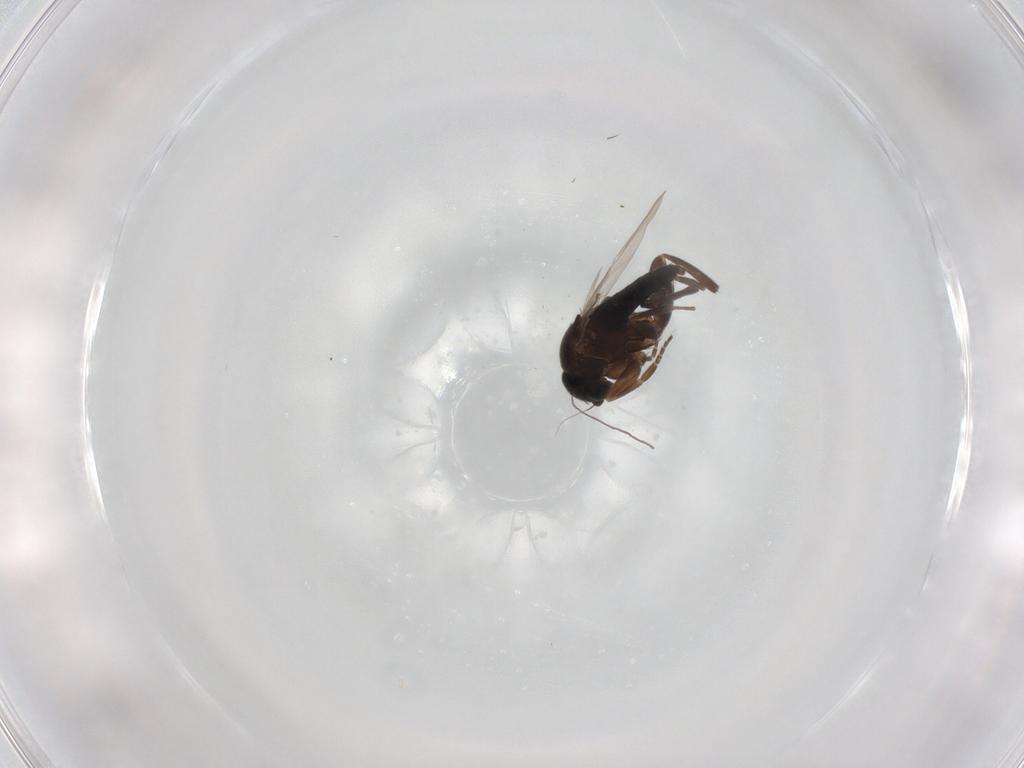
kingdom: Animalia
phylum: Arthropoda
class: Insecta
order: Diptera
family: Phoridae
